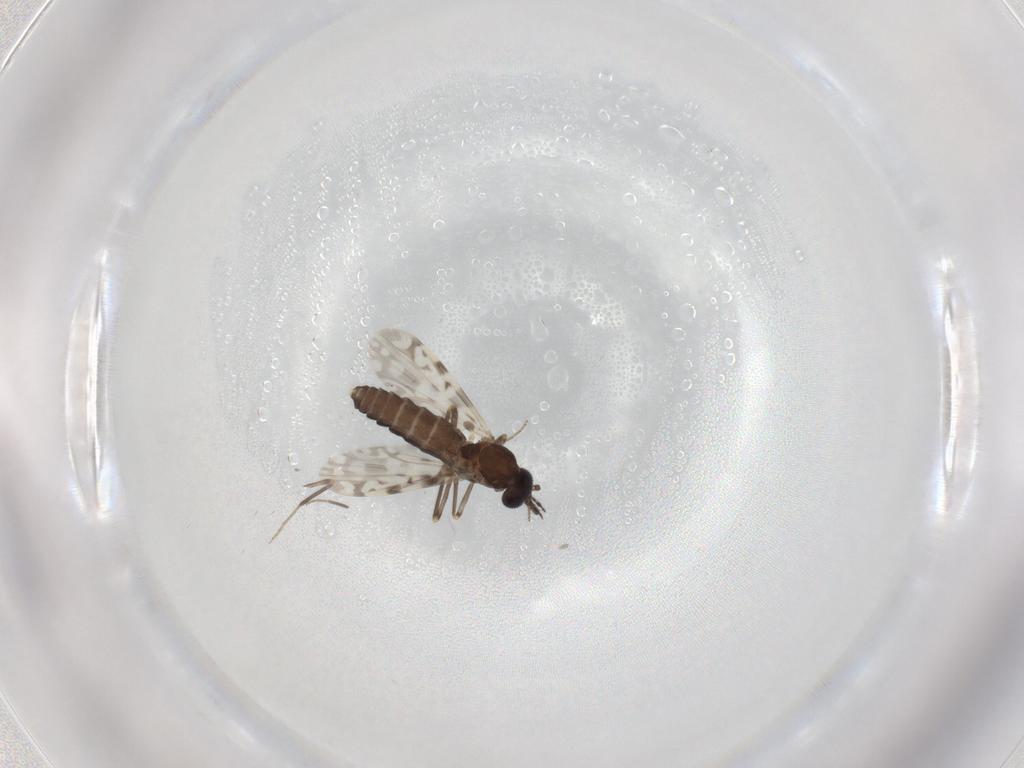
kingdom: Animalia
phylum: Arthropoda
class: Insecta
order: Diptera
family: Ceratopogonidae
